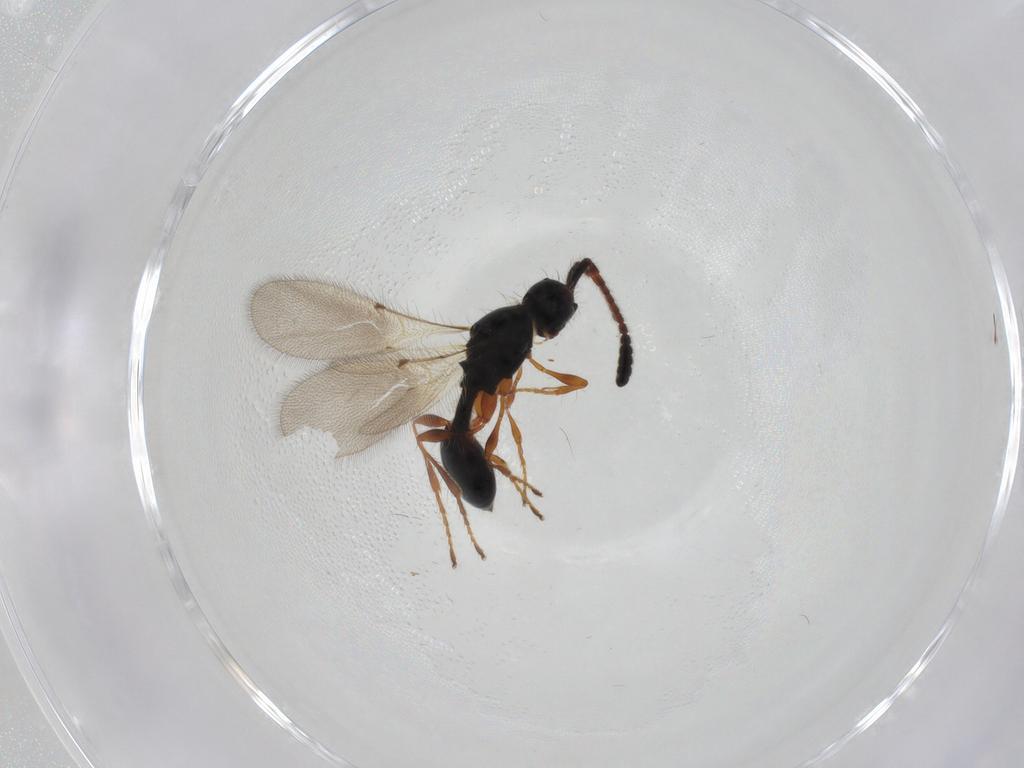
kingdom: Animalia
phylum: Arthropoda
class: Insecta
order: Hymenoptera
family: Diapriidae
